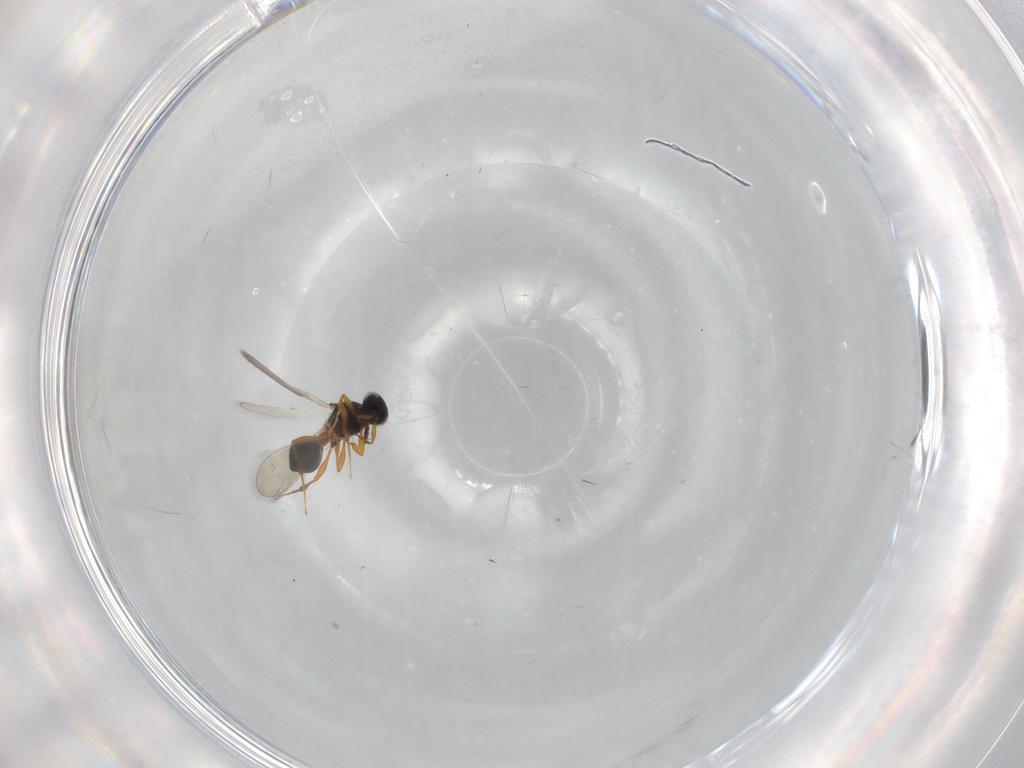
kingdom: Animalia
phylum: Arthropoda
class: Insecta
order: Hymenoptera
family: Platygastridae
